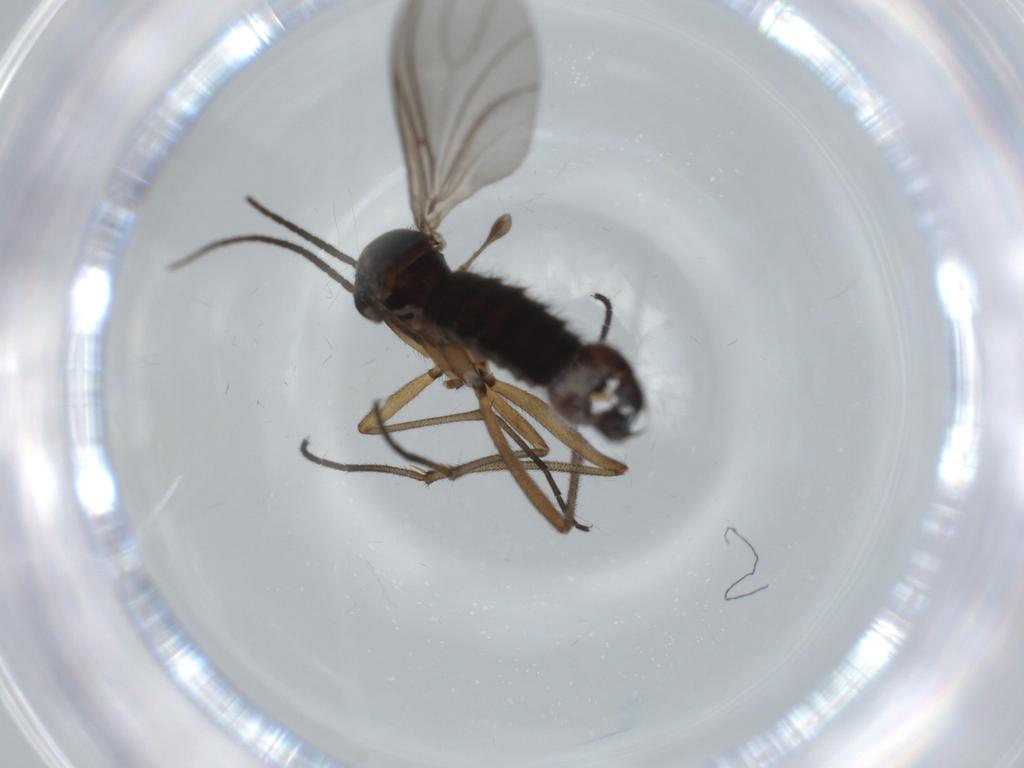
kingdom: Animalia
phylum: Arthropoda
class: Insecta
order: Diptera
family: Sciaridae
